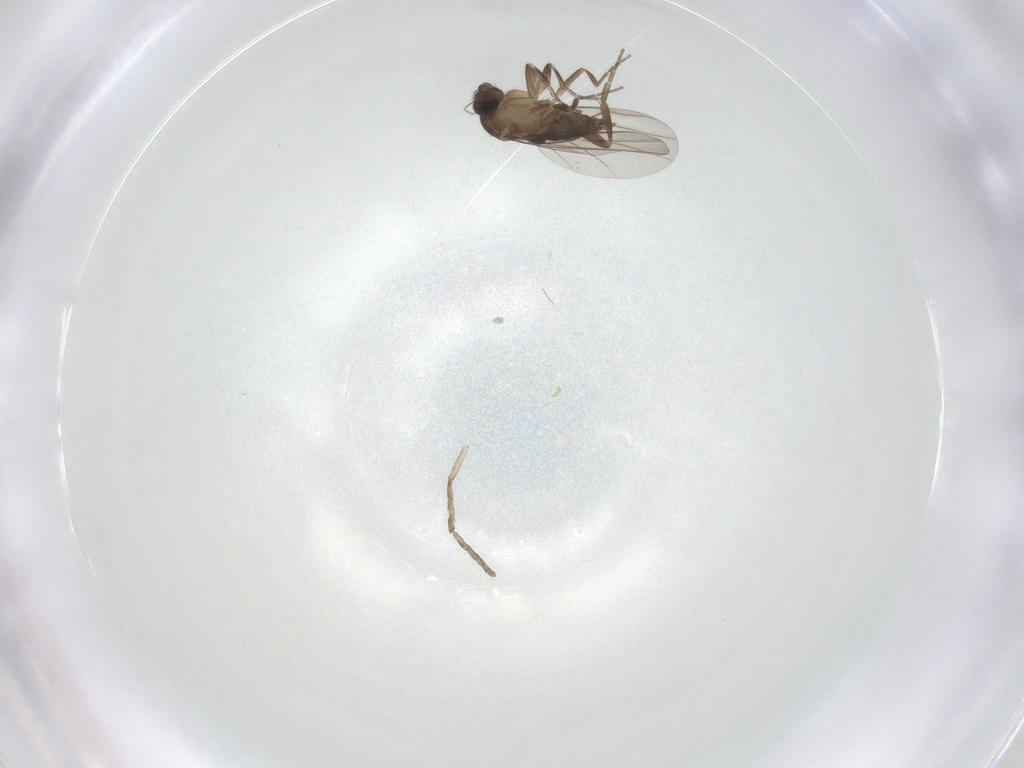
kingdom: Animalia
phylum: Arthropoda
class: Insecta
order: Diptera
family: Phoridae
